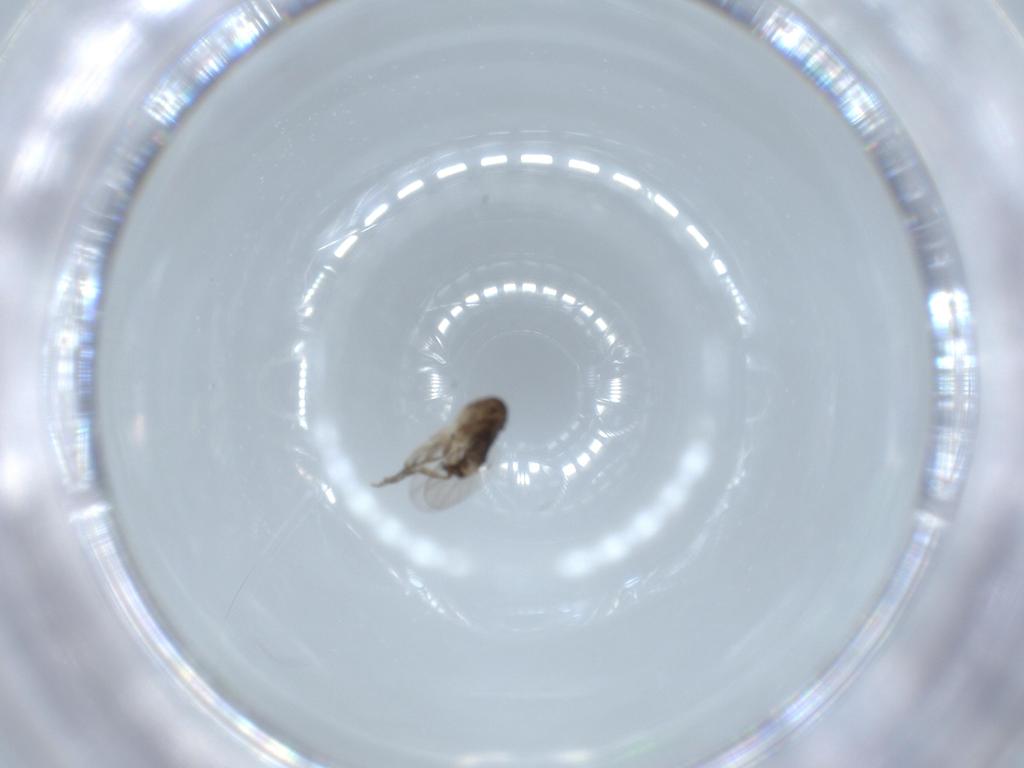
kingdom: Animalia
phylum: Arthropoda
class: Insecta
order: Diptera
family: Phoridae
